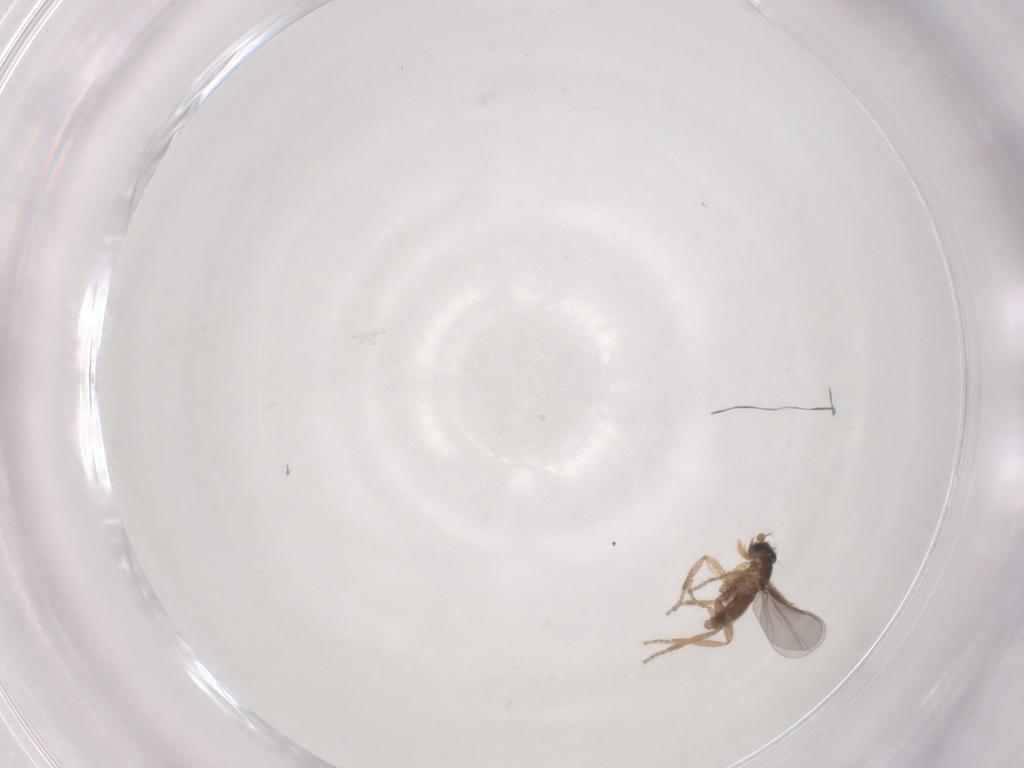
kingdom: Animalia
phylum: Arthropoda
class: Insecta
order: Diptera
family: Phoridae
